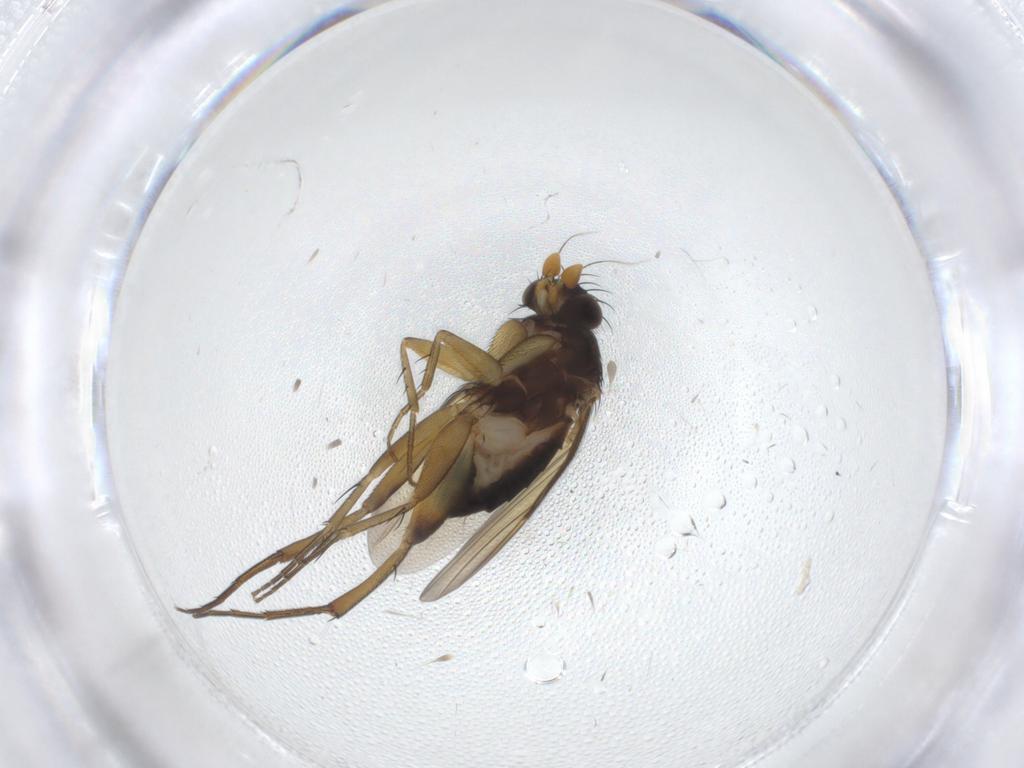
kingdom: Animalia
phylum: Arthropoda
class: Insecta
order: Diptera
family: Phoridae
